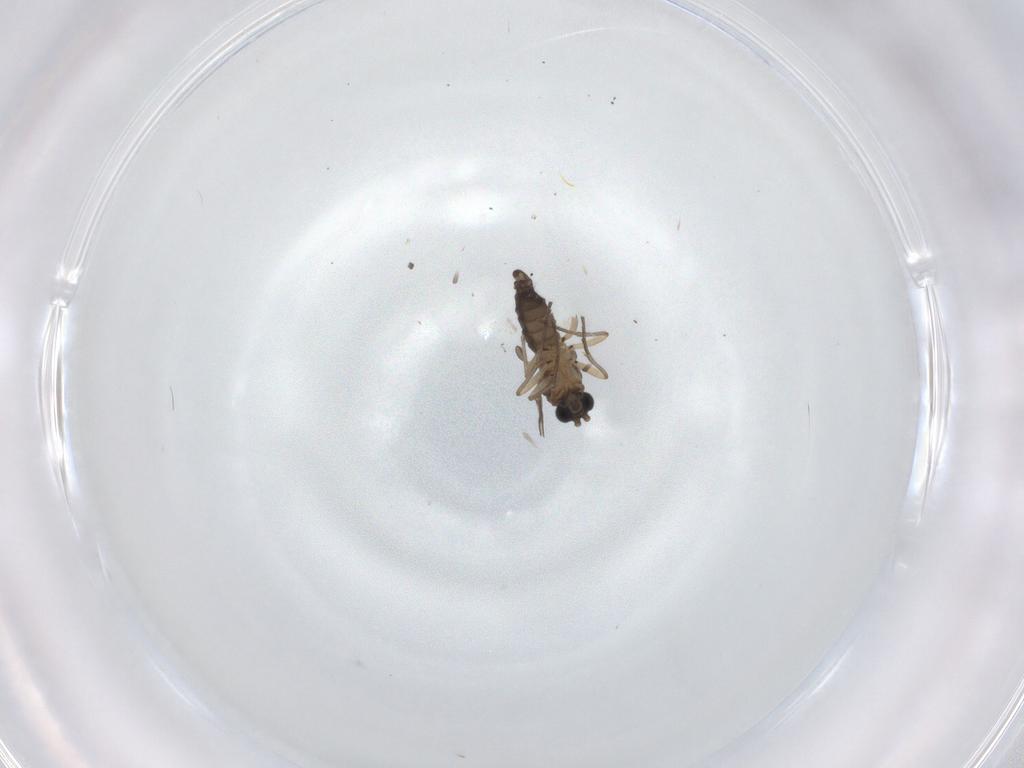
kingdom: Animalia
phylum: Arthropoda
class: Insecta
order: Diptera
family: Sciaridae
